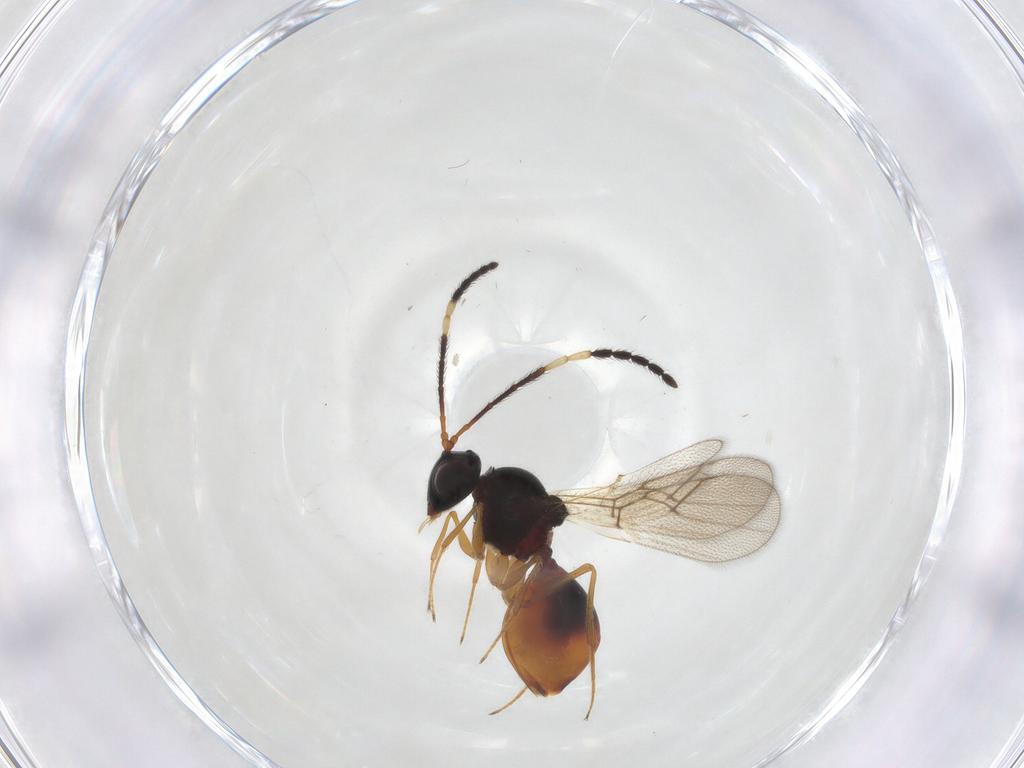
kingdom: Animalia
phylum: Arthropoda
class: Insecta
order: Hymenoptera
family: Figitidae
